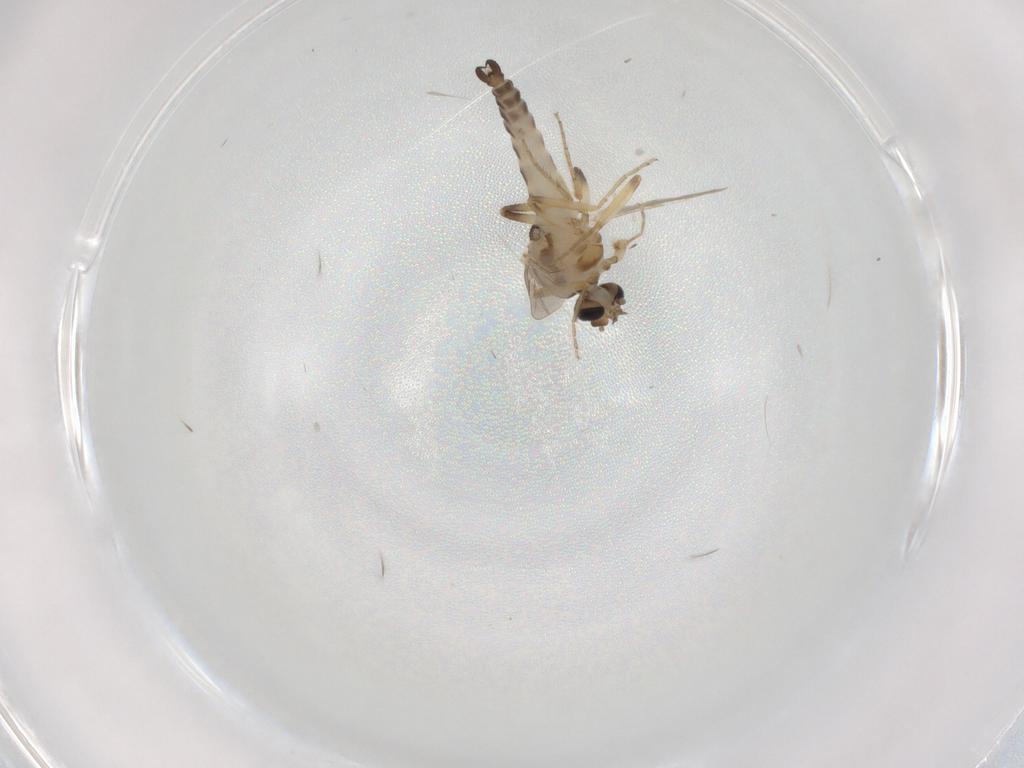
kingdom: Animalia
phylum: Arthropoda
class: Insecta
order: Diptera
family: Ceratopogonidae
